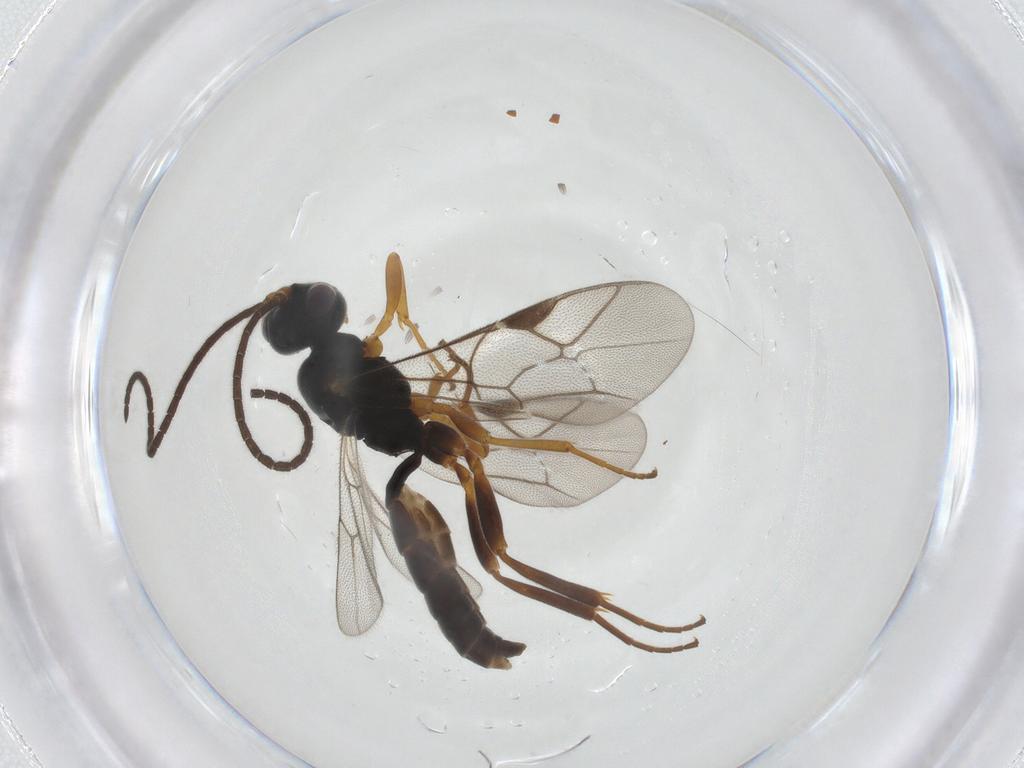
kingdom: Animalia
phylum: Arthropoda
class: Insecta
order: Hymenoptera
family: Ichneumonidae
